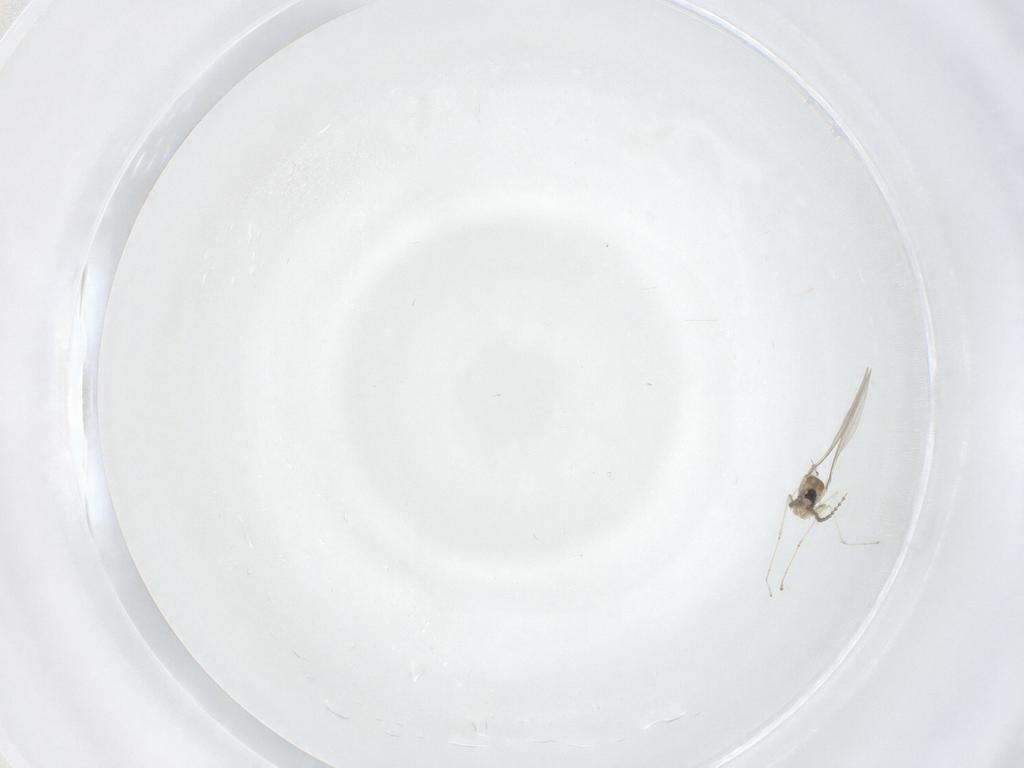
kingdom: Animalia
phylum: Arthropoda
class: Insecta
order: Diptera
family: Cecidomyiidae
